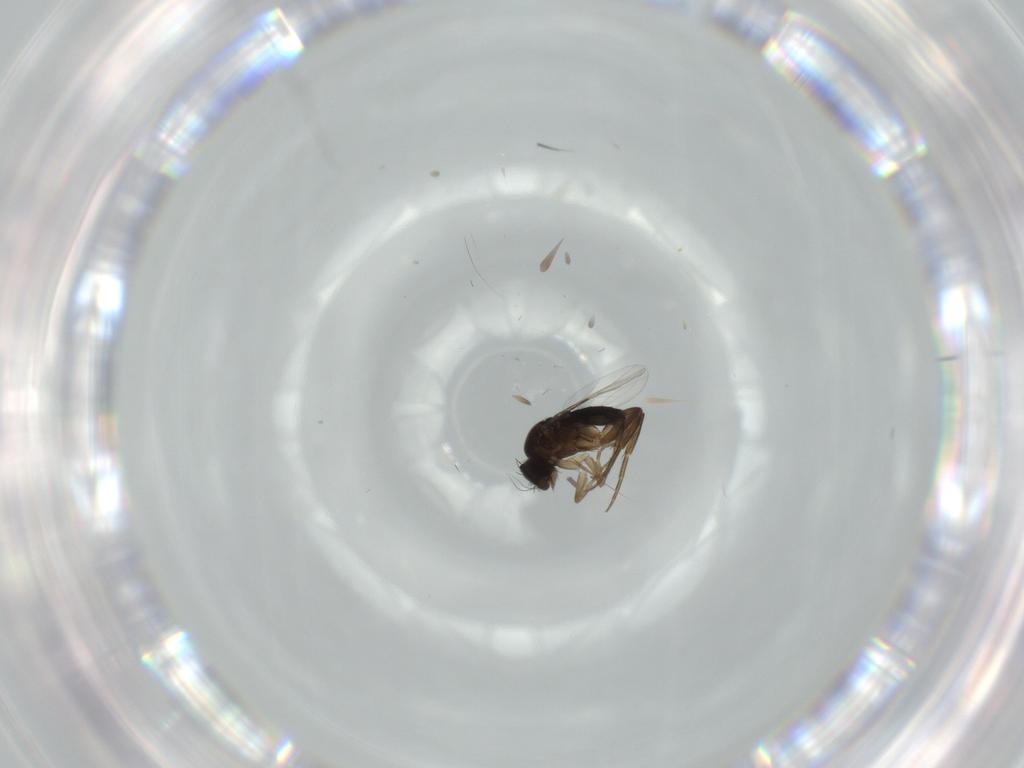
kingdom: Animalia
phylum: Arthropoda
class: Insecta
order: Diptera
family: Phoridae
